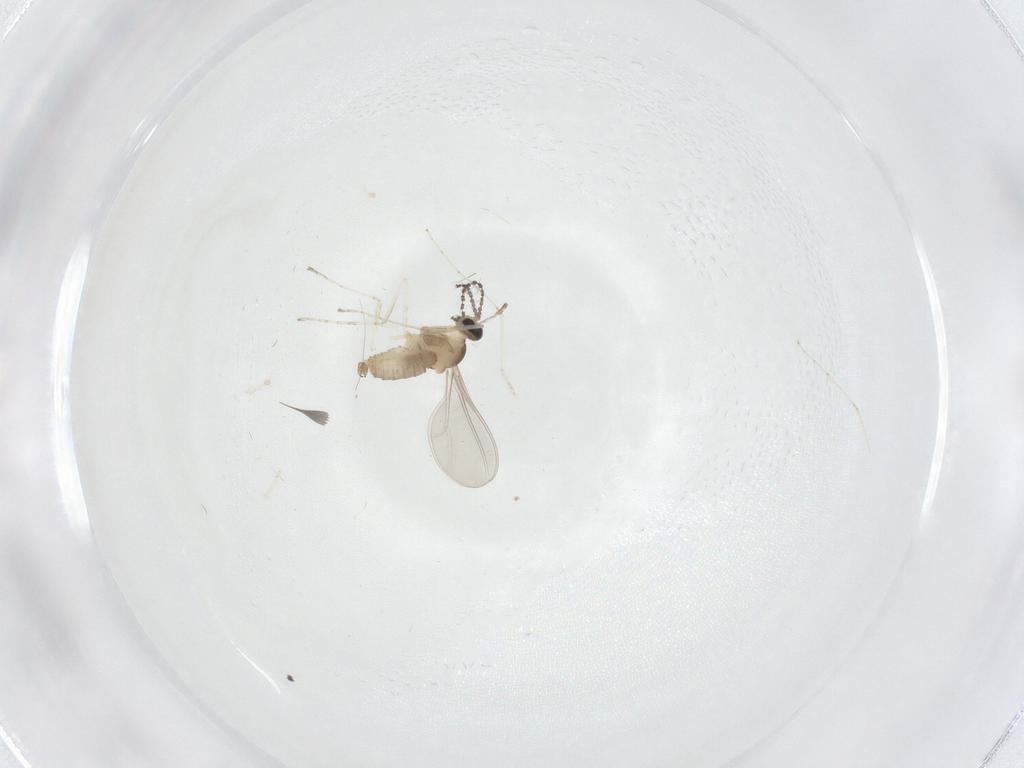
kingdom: Animalia
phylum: Arthropoda
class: Insecta
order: Diptera
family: Cecidomyiidae
